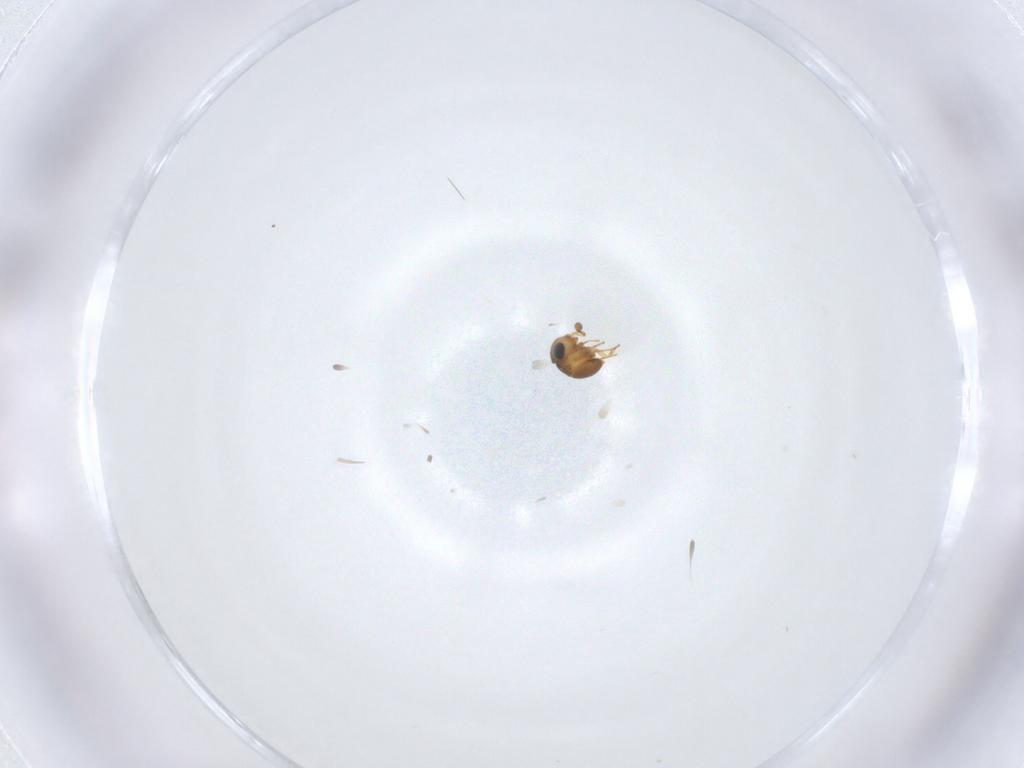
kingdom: Animalia
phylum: Arthropoda
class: Insecta
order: Hymenoptera
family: Scelionidae
